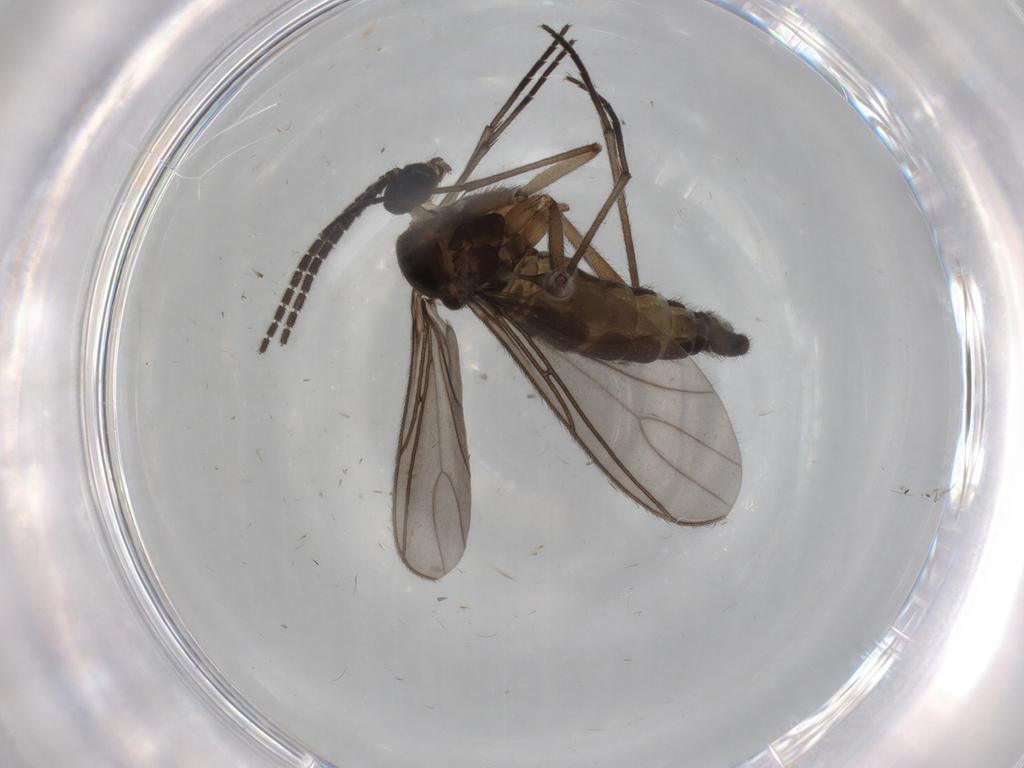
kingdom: Animalia
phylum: Arthropoda
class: Insecta
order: Diptera
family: Sciaridae
